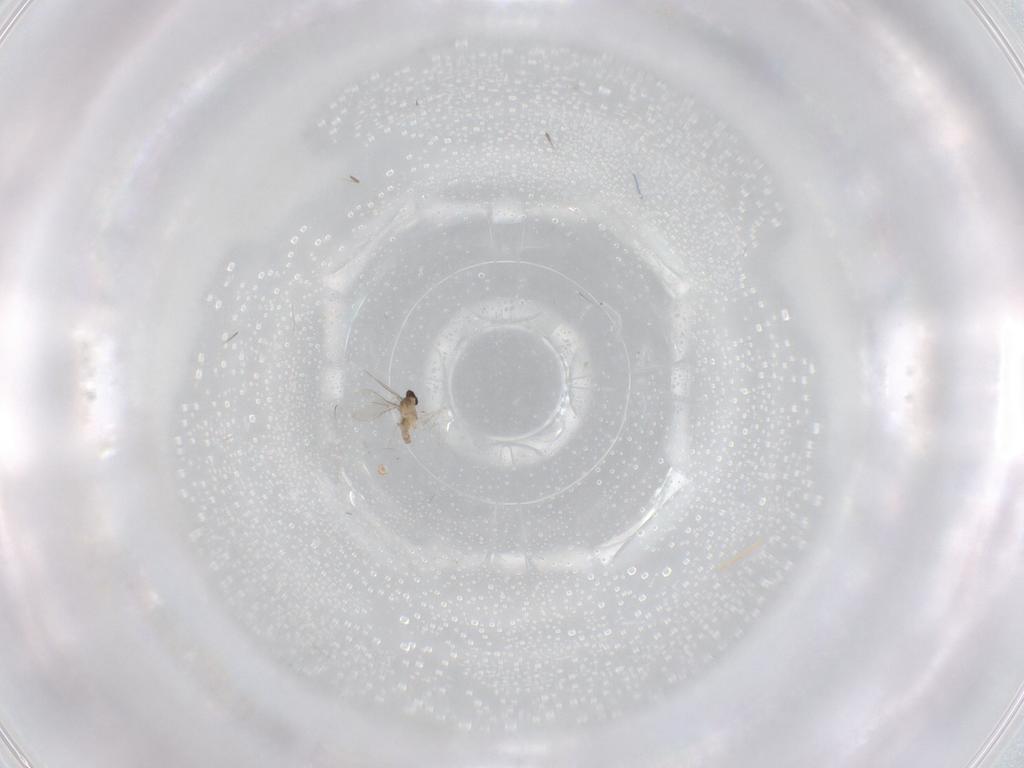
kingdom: Animalia
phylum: Arthropoda
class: Insecta
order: Diptera
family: Cecidomyiidae
